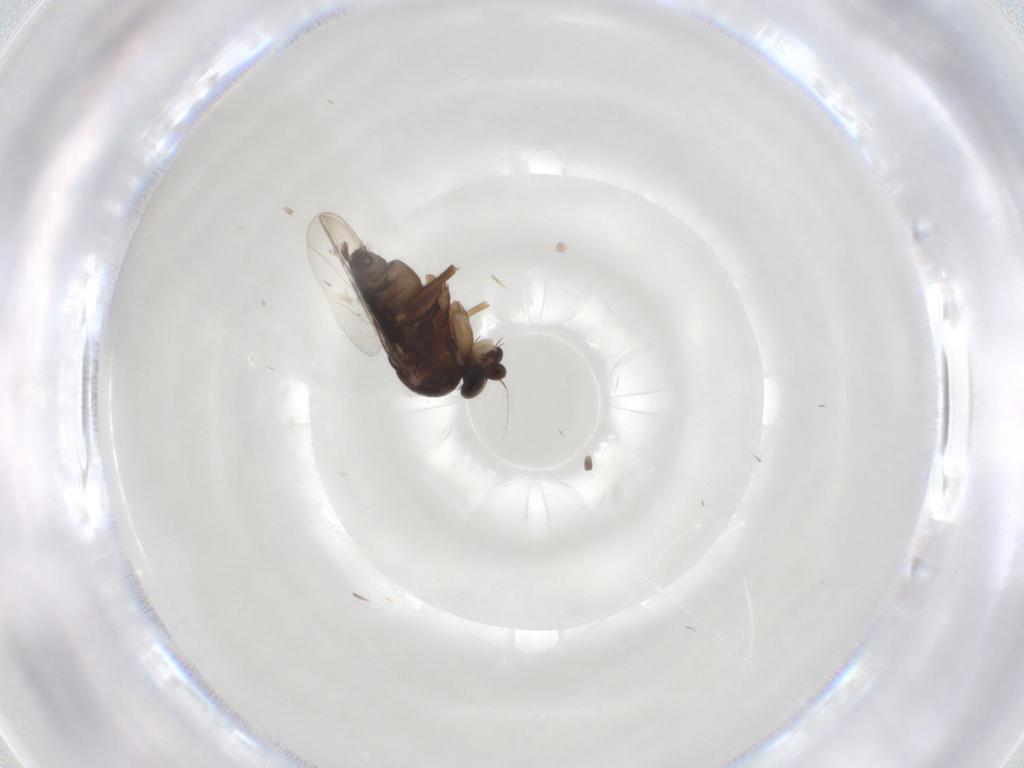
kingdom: Animalia
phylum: Arthropoda
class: Insecta
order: Diptera
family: Phoridae
